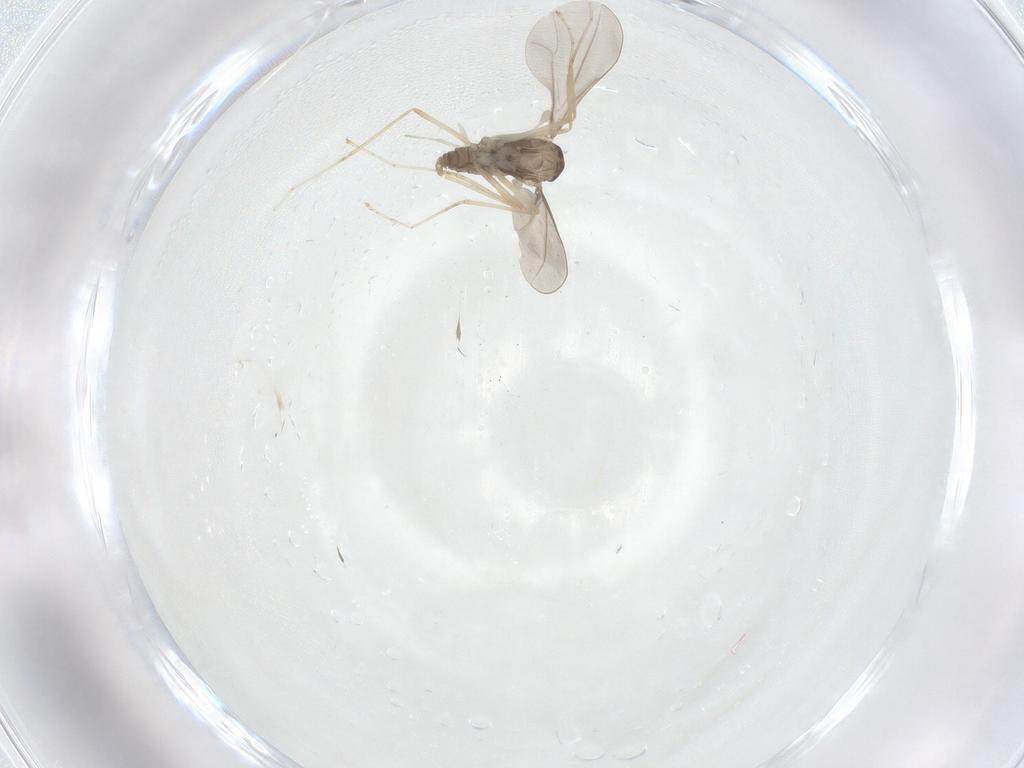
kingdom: Animalia
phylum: Arthropoda
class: Insecta
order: Diptera
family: Cecidomyiidae
